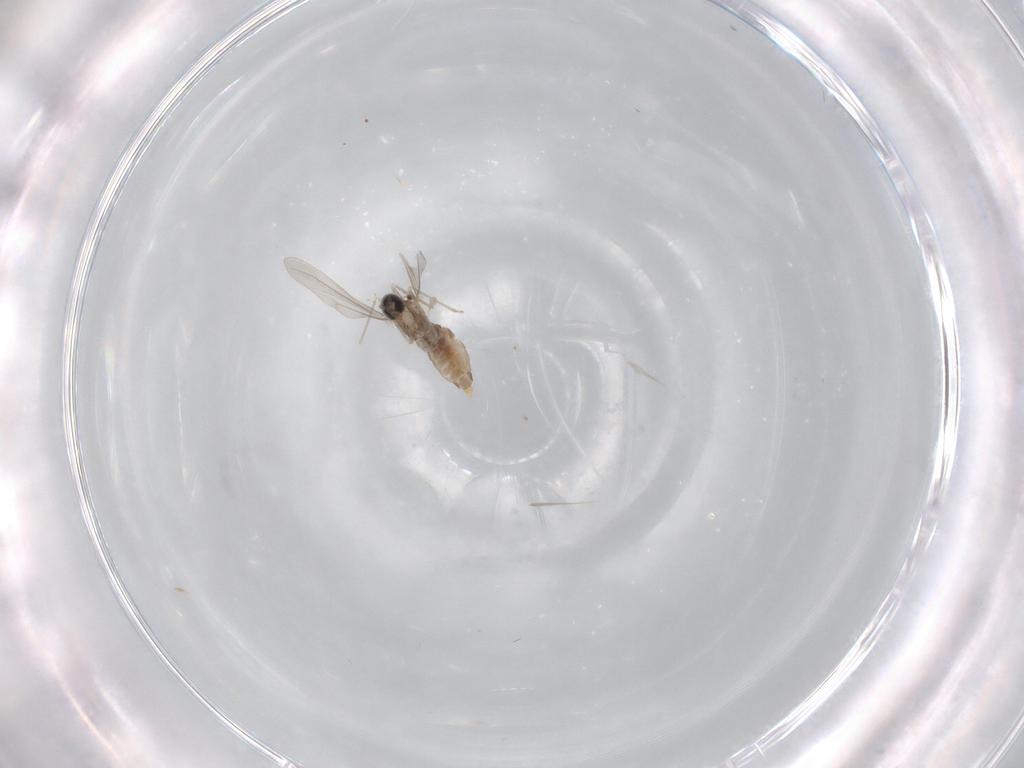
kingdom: Animalia
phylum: Arthropoda
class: Insecta
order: Diptera
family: Cecidomyiidae
